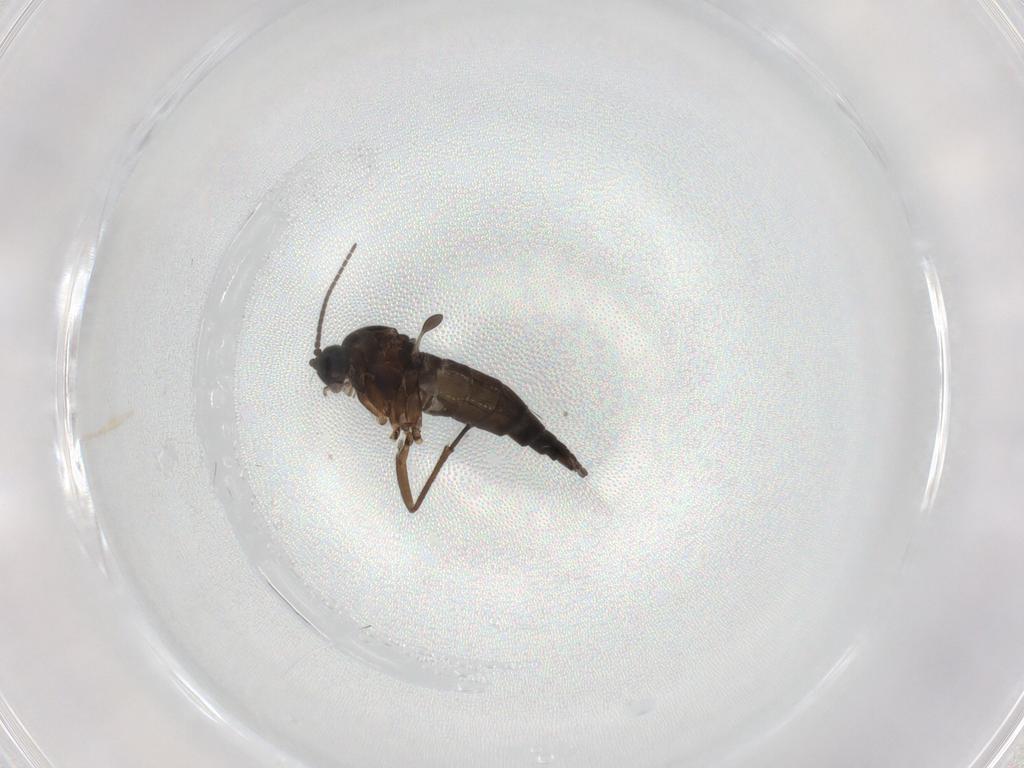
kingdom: Animalia
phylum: Arthropoda
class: Insecta
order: Diptera
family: Sciaridae
